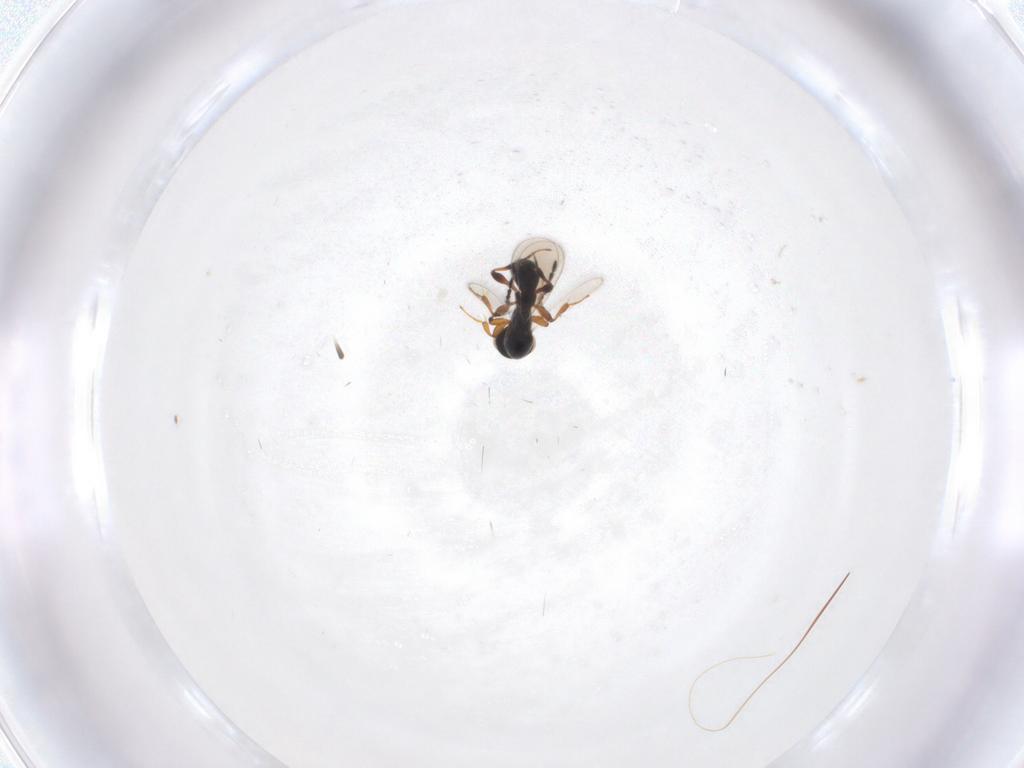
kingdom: Animalia
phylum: Arthropoda
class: Insecta
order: Hymenoptera
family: Platygastridae
